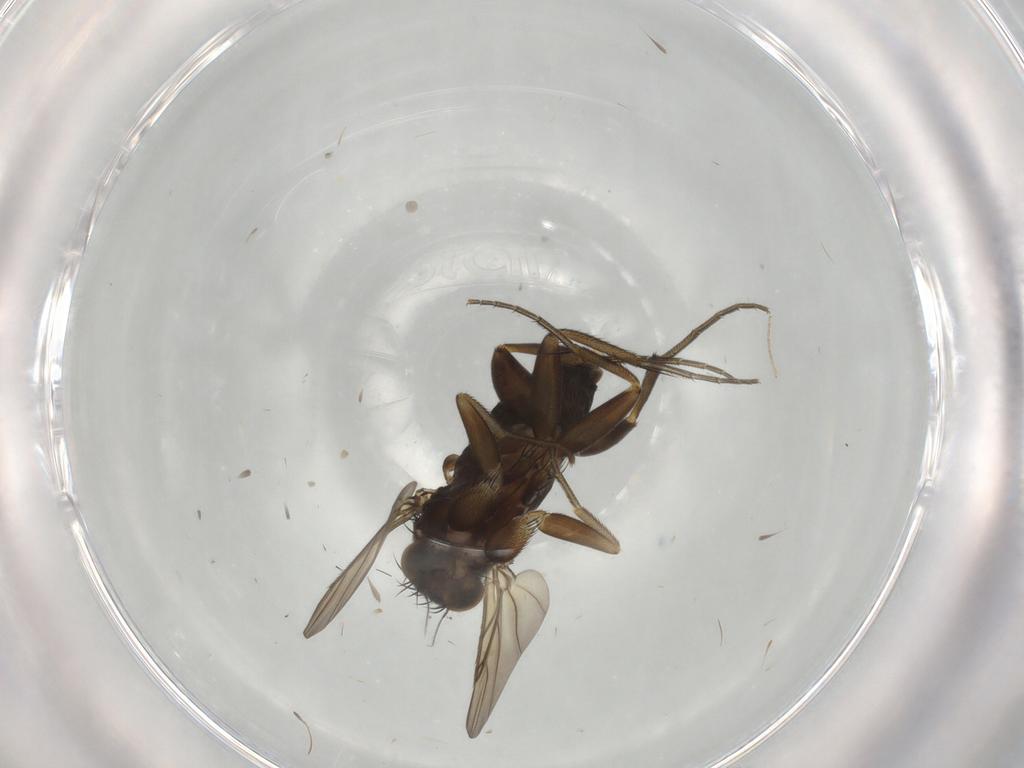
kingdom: Animalia
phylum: Arthropoda
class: Insecta
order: Diptera
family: Phoridae
